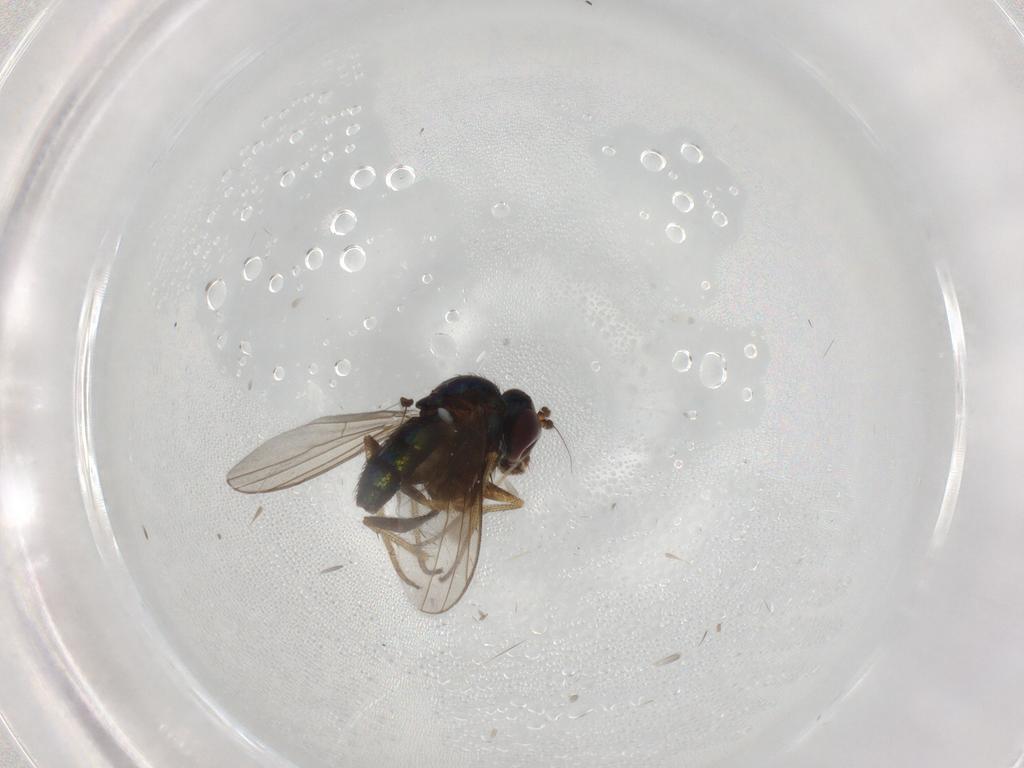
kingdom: Animalia
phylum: Arthropoda
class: Insecta
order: Diptera
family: Dolichopodidae
